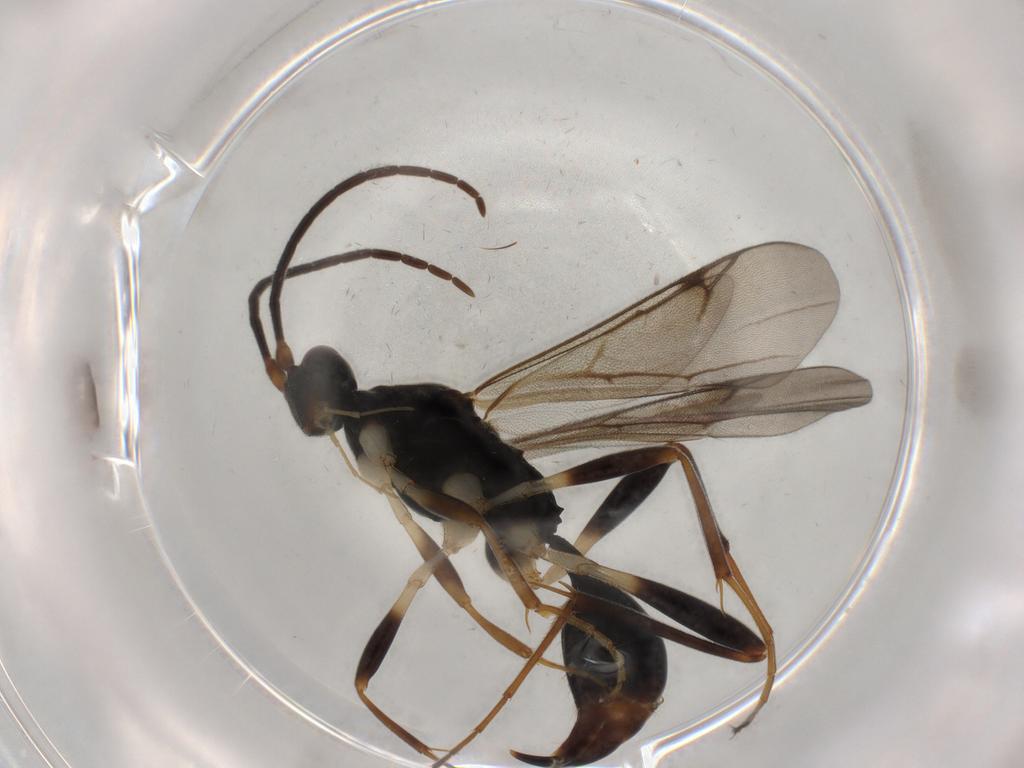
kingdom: Animalia
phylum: Arthropoda
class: Insecta
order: Hymenoptera
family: Proctotrupidae
